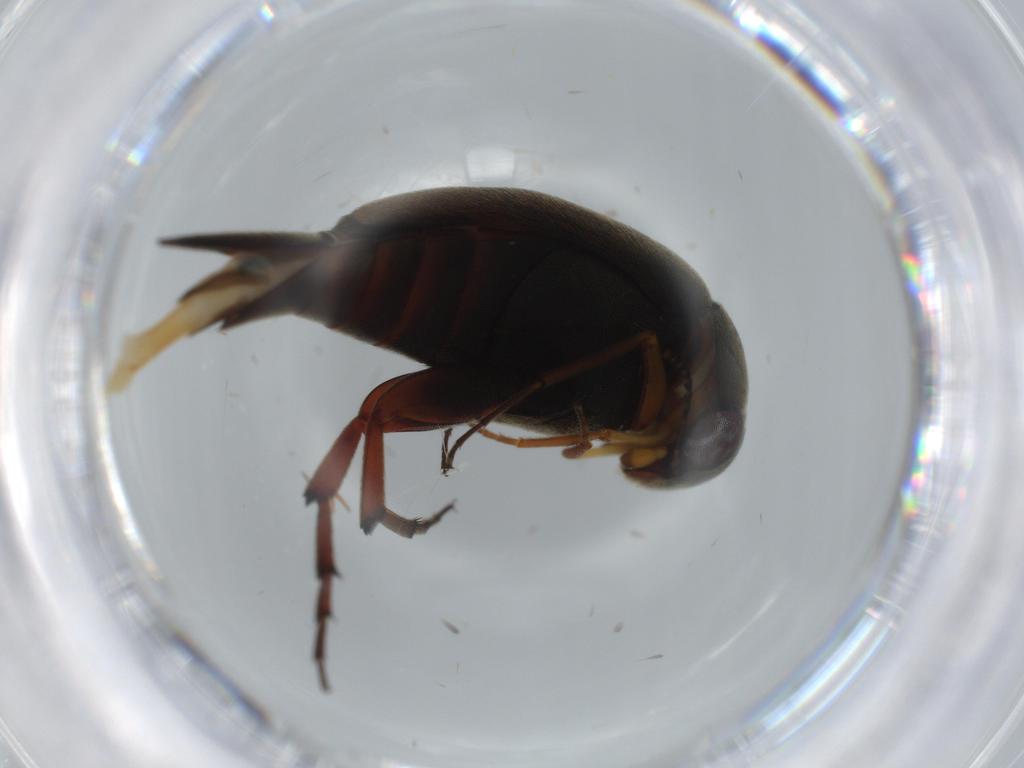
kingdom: Animalia
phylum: Arthropoda
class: Insecta
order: Coleoptera
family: Mordellidae
